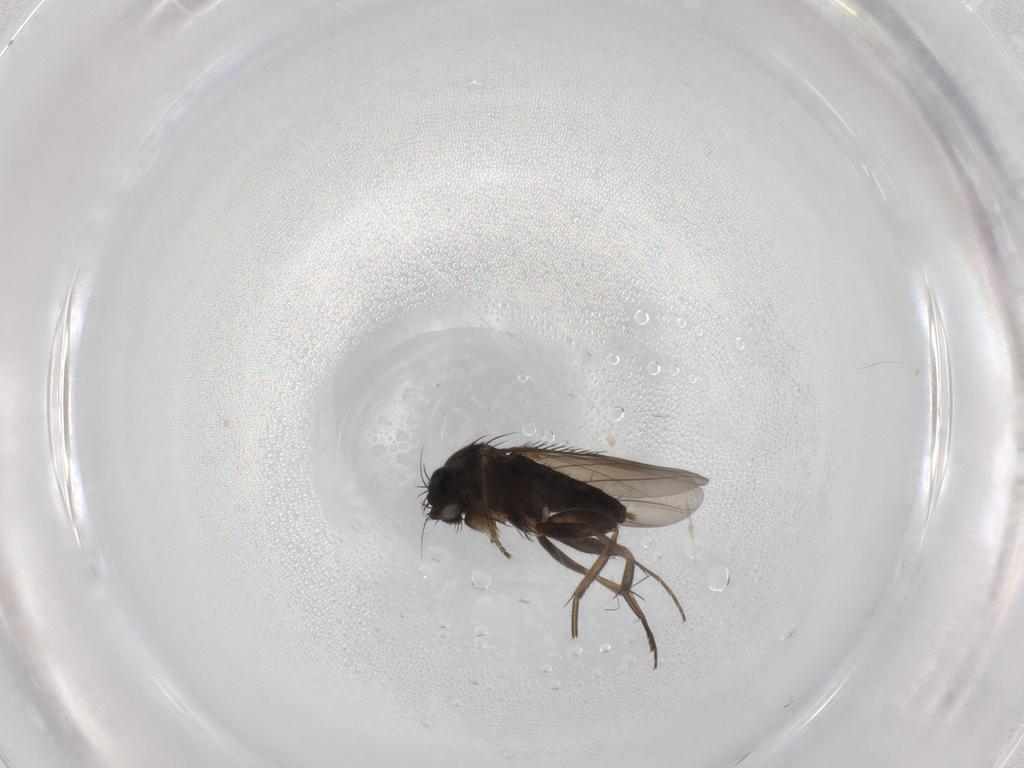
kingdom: Animalia
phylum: Arthropoda
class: Insecta
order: Diptera
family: Phoridae
